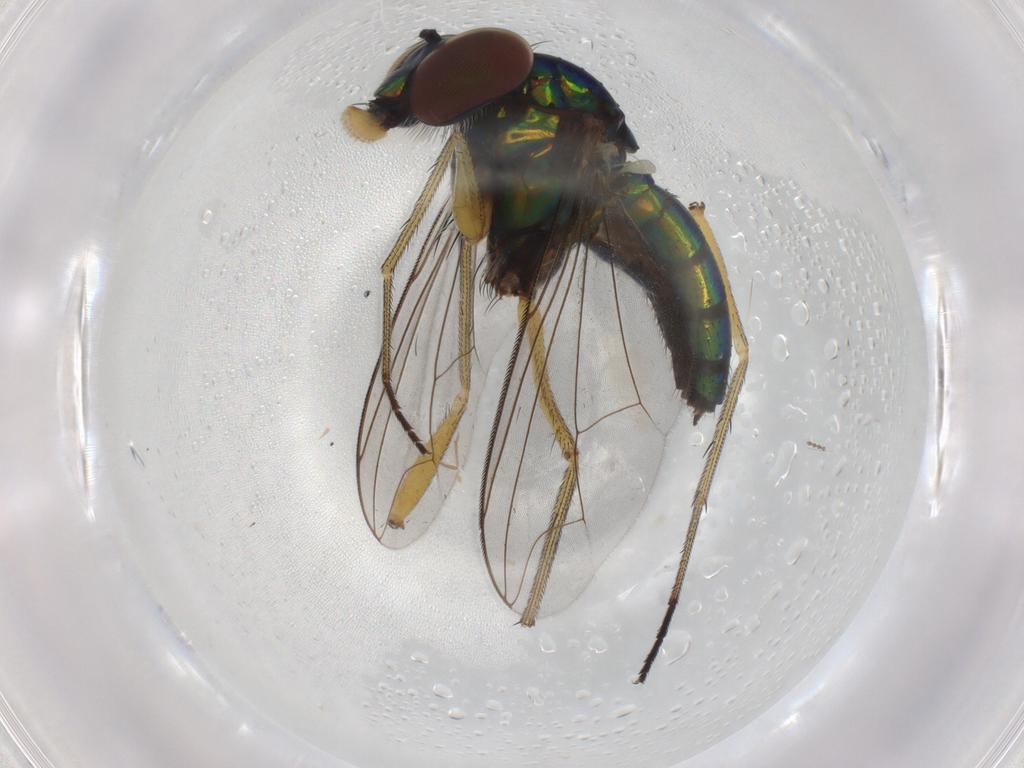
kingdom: Animalia
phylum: Arthropoda
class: Insecta
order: Diptera
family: Dolichopodidae
